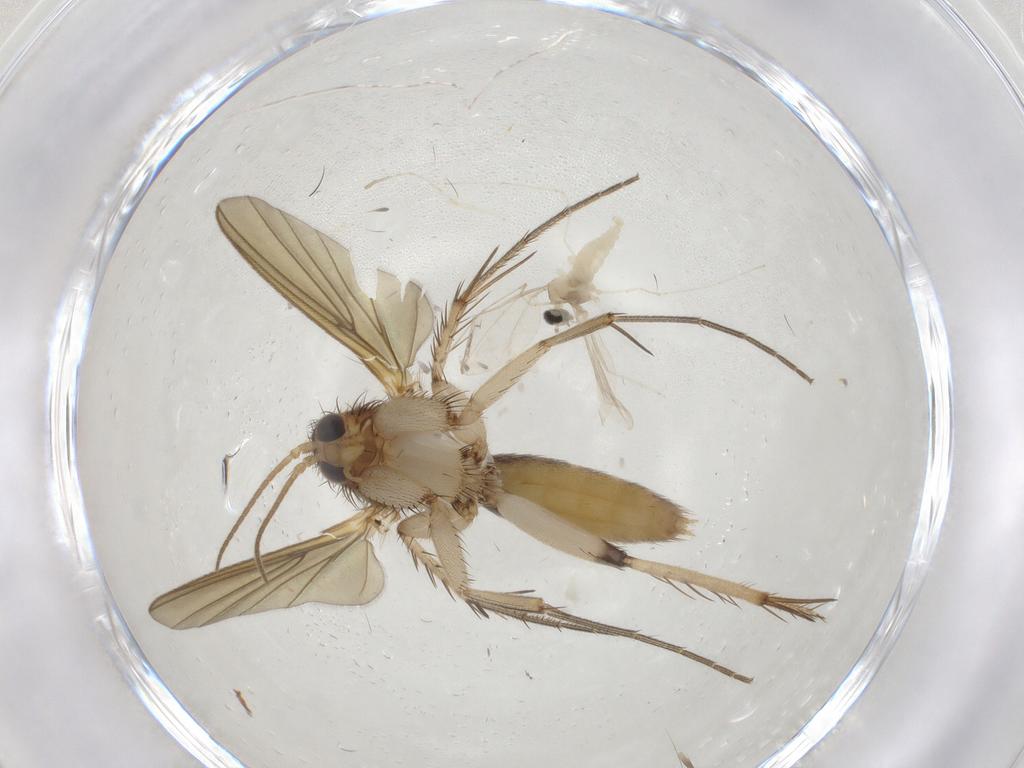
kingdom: Animalia
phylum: Arthropoda
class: Insecta
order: Diptera
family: Mycetophilidae
